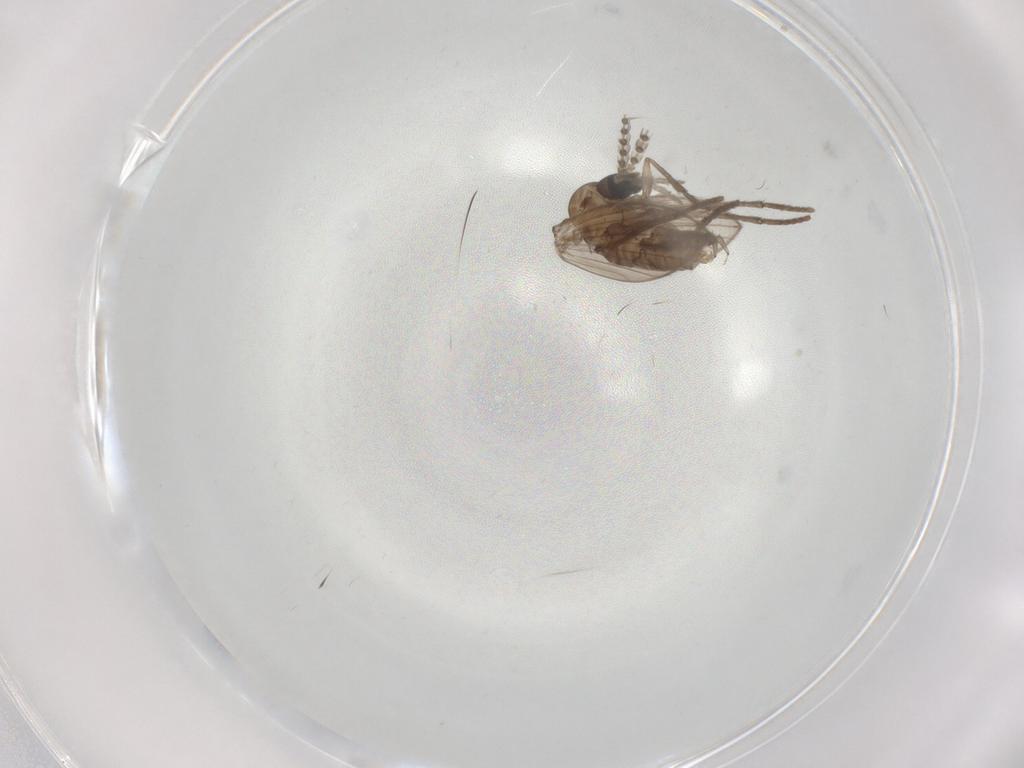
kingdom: Animalia
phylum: Arthropoda
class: Insecta
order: Diptera
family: Psychodidae
